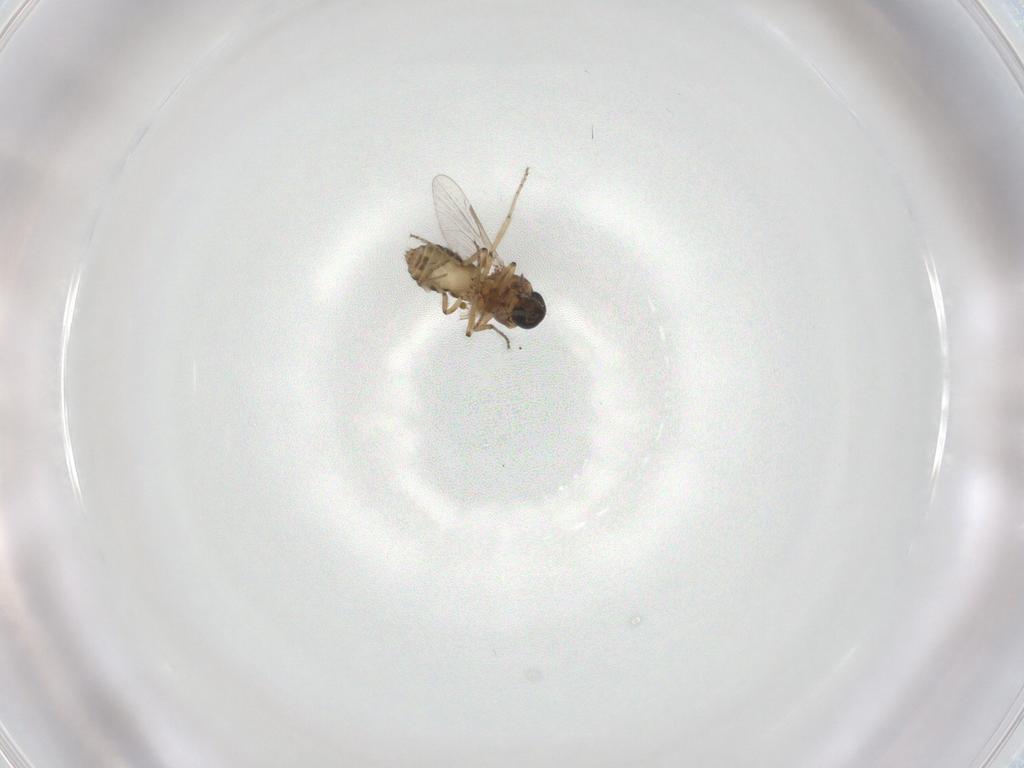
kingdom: Animalia
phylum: Arthropoda
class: Insecta
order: Diptera
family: Ceratopogonidae
